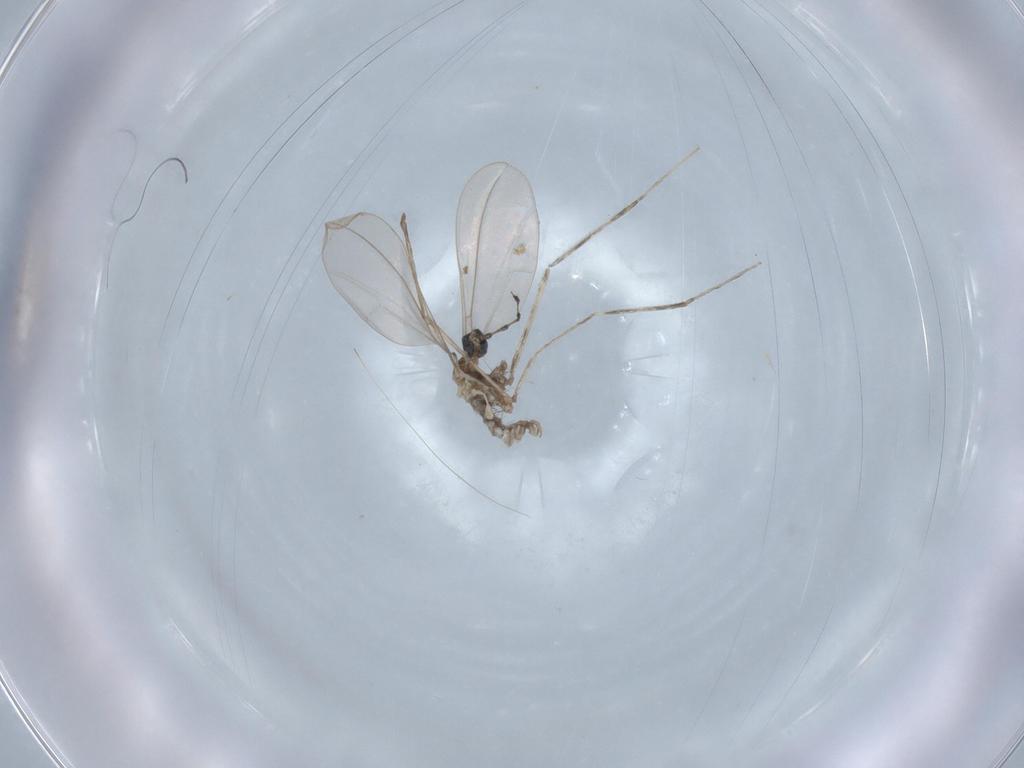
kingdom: Animalia
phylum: Arthropoda
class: Insecta
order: Diptera
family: Cecidomyiidae
